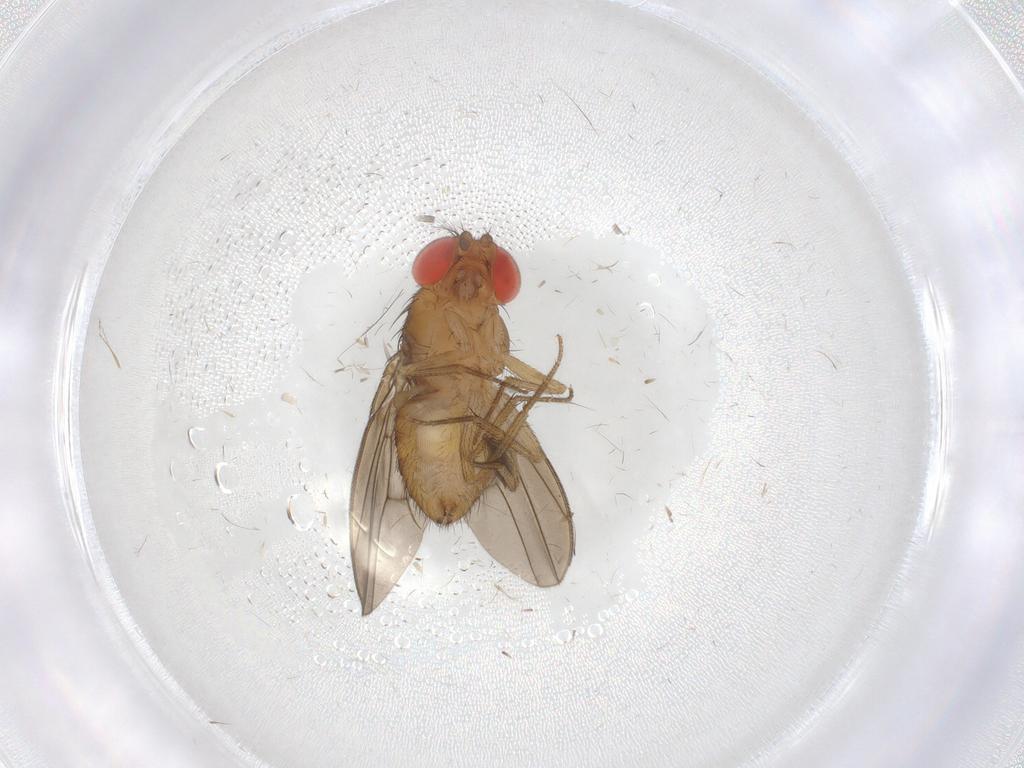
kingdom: Animalia
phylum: Arthropoda
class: Insecta
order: Diptera
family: Drosophilidae
